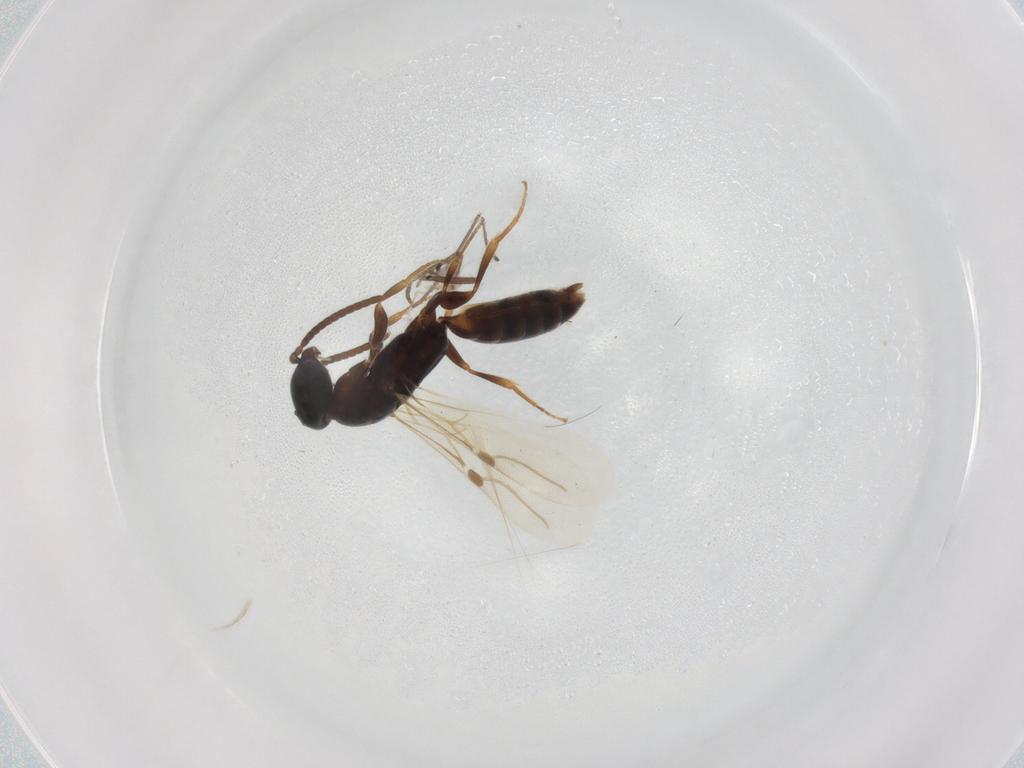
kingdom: Animalia
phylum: Arthropoda
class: Insecta
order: Hymenoptera
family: Bethylidae
